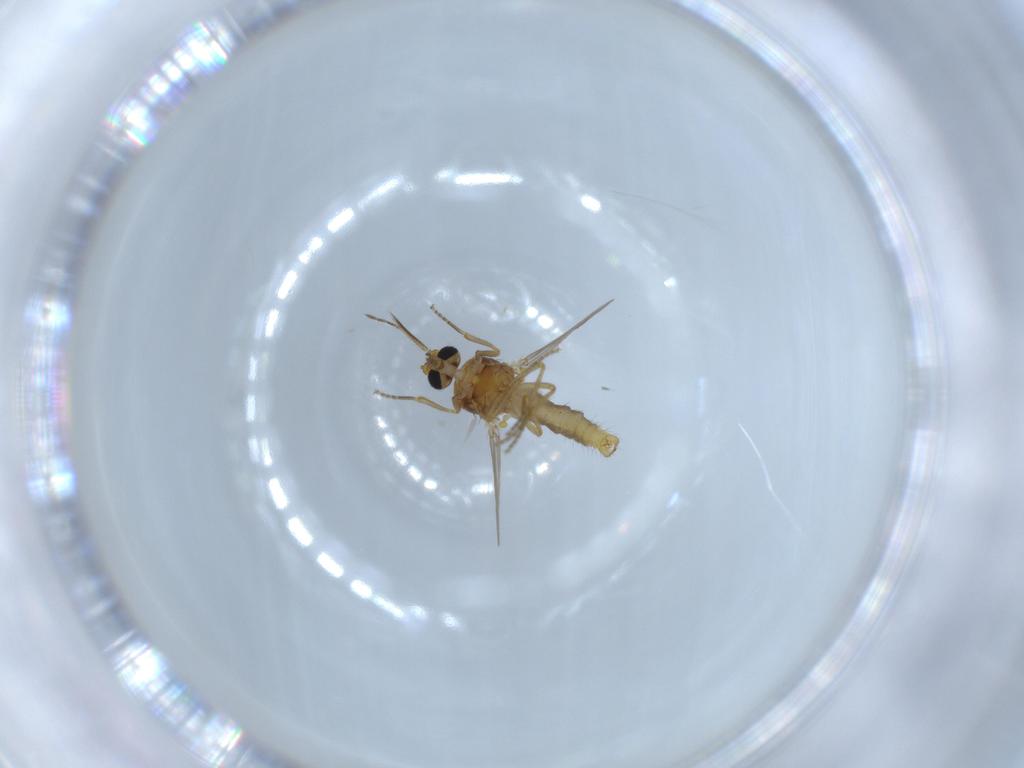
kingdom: Animalia
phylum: Arthropoda
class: Insecta
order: Diptera
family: Ceratopogonidae
